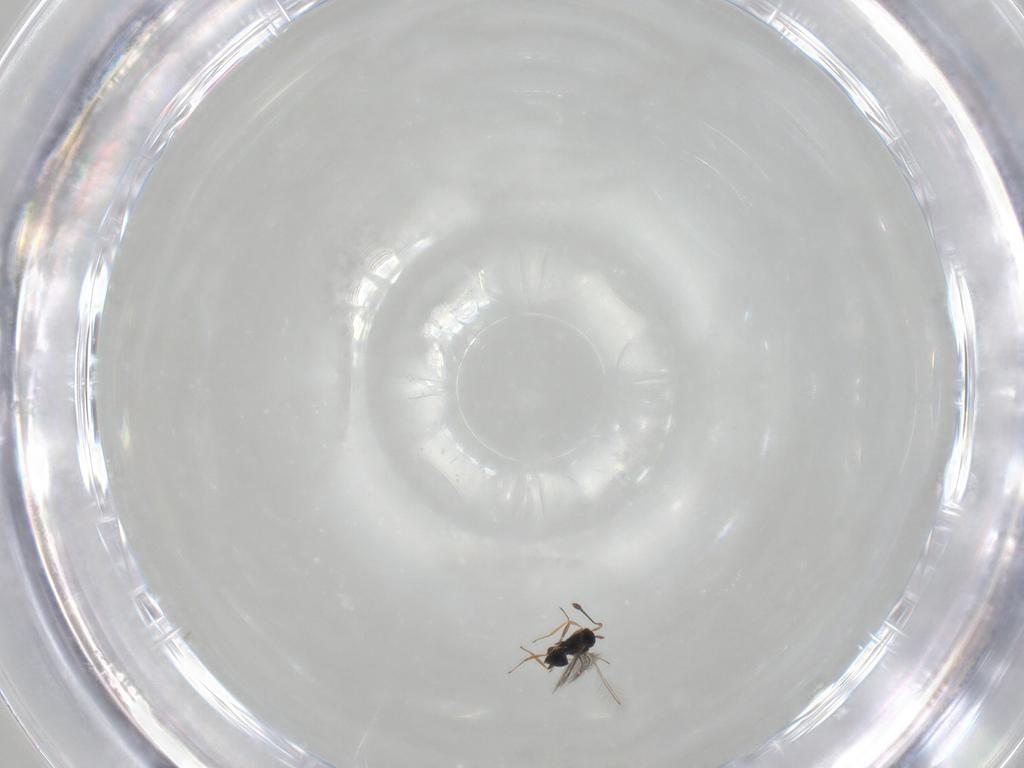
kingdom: Animalia
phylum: Arthropoda
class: Insecta
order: Hymenoptera
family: Mymaridae
